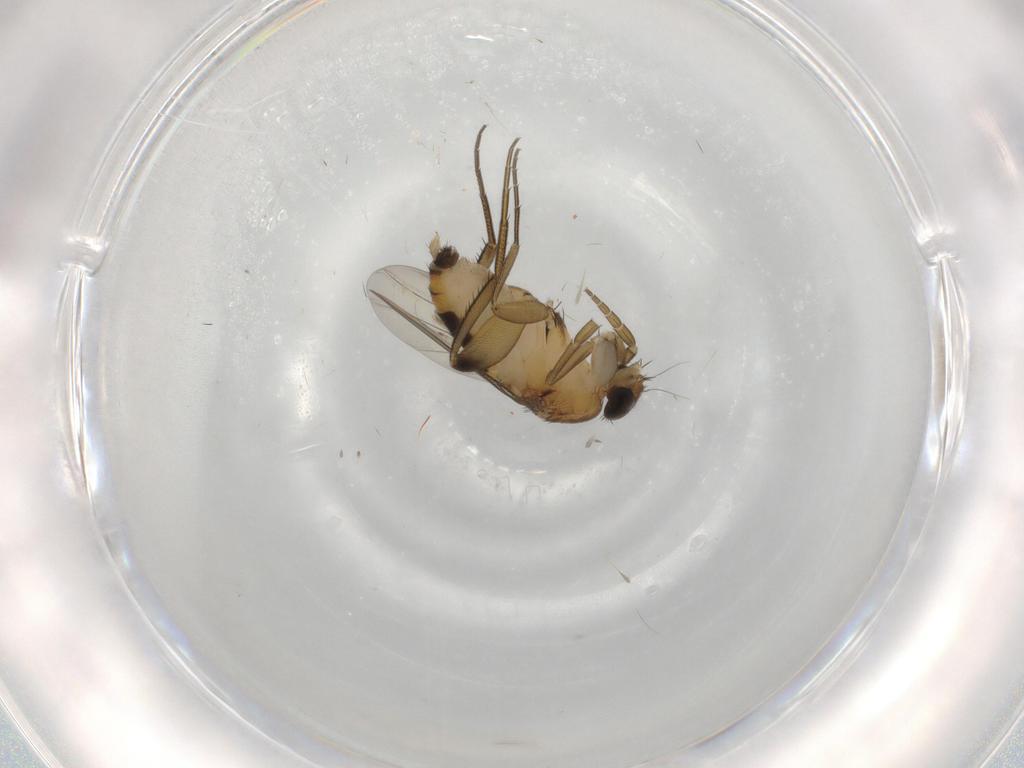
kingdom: Animalia
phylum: Arthropoda
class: Insecta
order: Diptera
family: Phoridae
